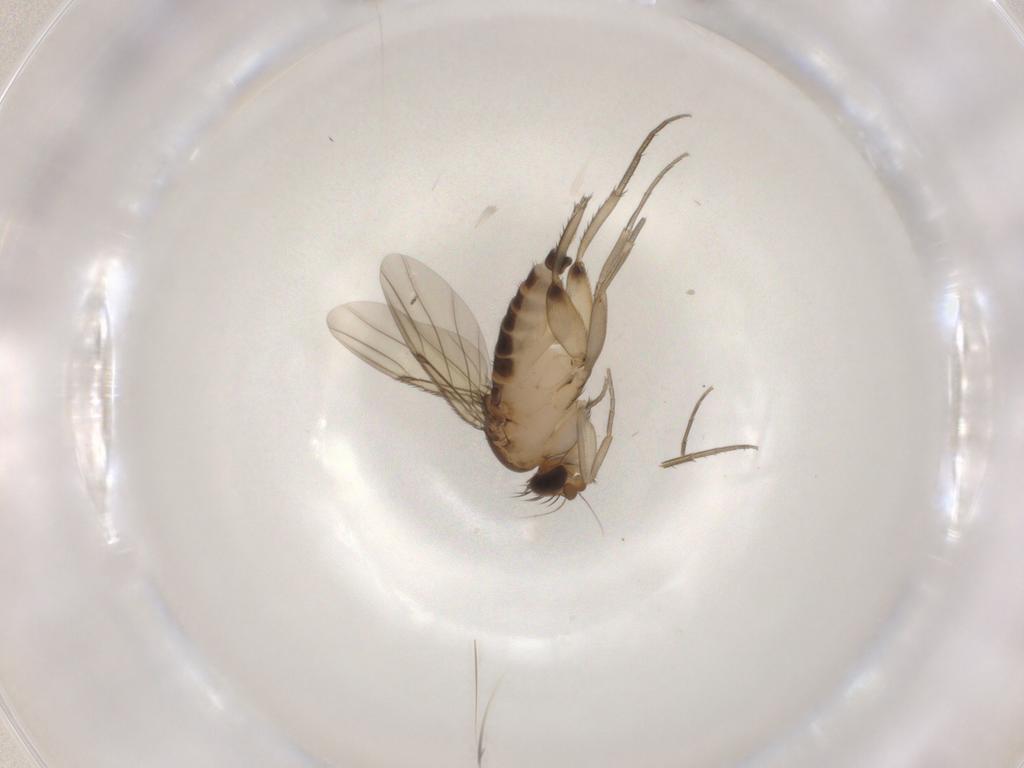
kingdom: Animalia
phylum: Arthropoda
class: Insecta
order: Diptera
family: Phoridae
